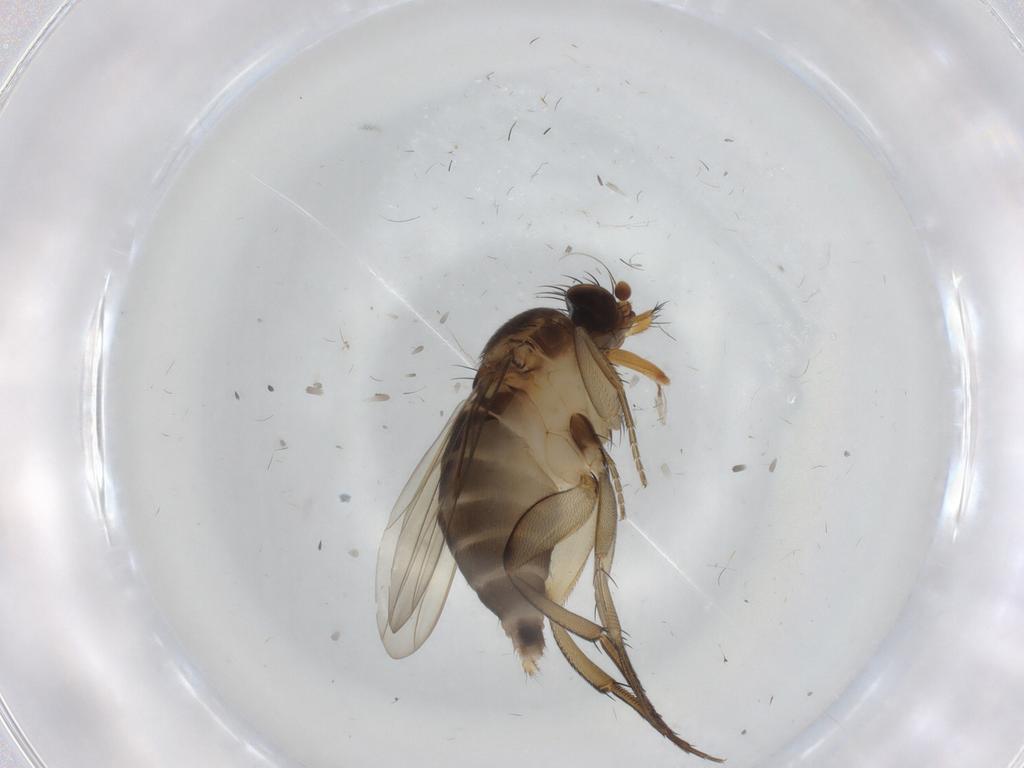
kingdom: Animalia
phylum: Arthropoda
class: Insecta
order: Diptera
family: Phoridae
